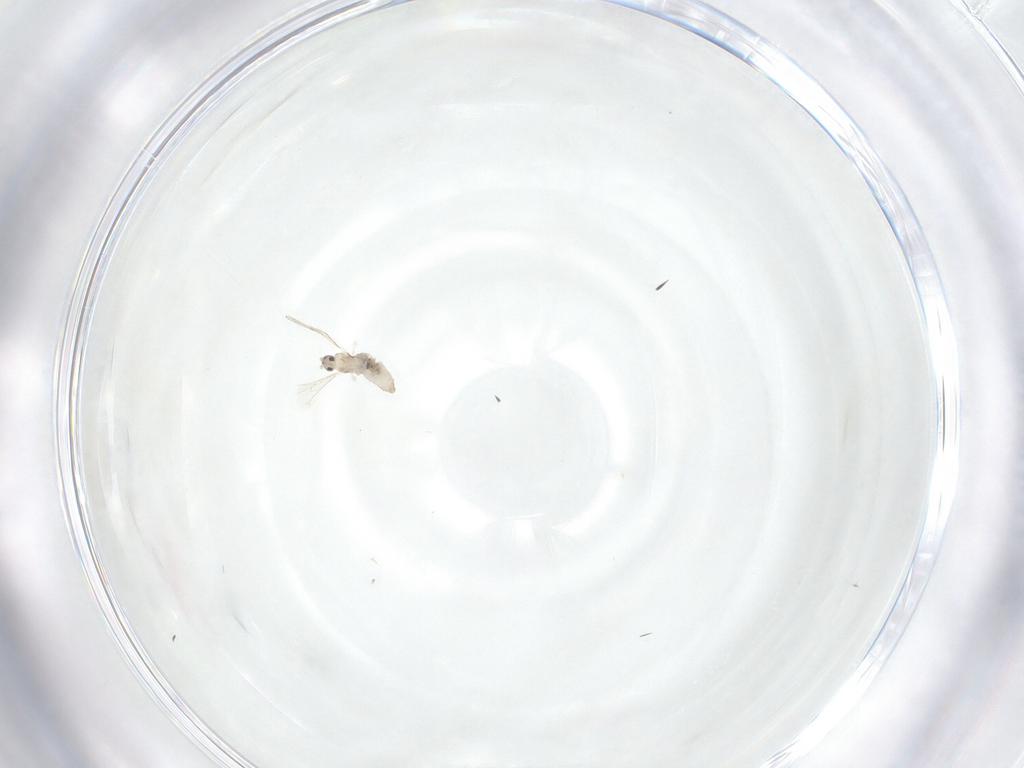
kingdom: Animalia
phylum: Arthropoda
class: Insecta
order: Diptera
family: Cecidomyiidae
